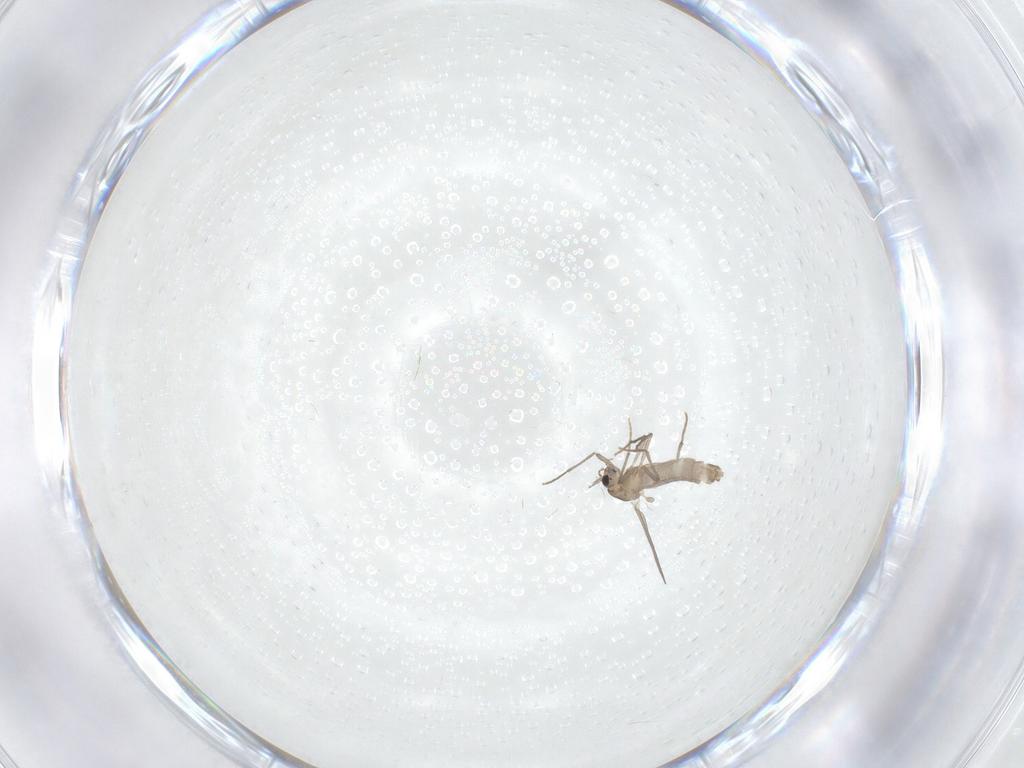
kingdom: Animalia
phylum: Arthropoda
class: Insecta
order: Diptera
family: Chironomidae
